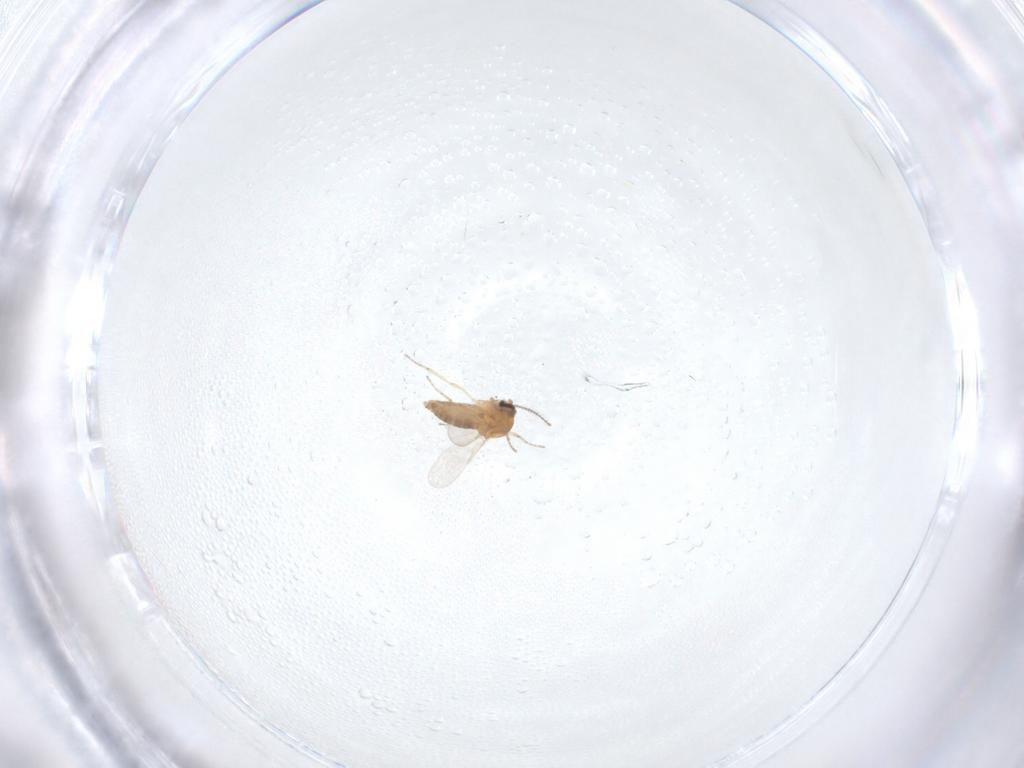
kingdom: Animalia
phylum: Arthropoda
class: Insecta
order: Diptera
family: Ceratopogonidae
